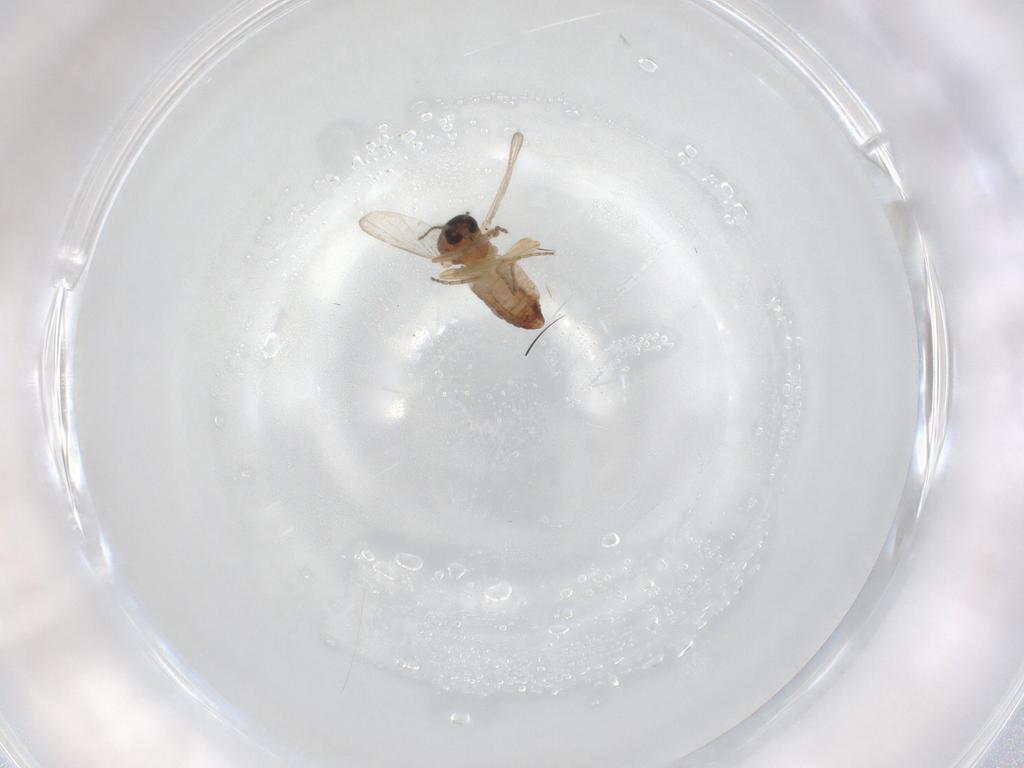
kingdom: Animalia
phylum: Arthropoda
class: Insecta
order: Diptera
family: Ceratopogonidae
